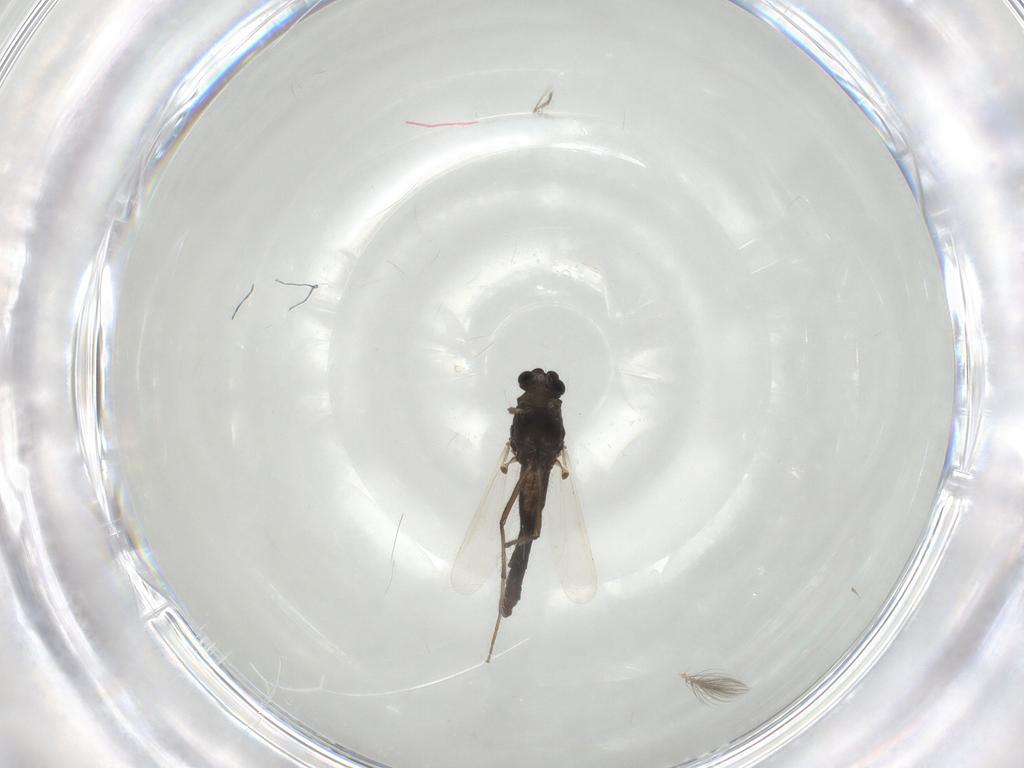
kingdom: Animalia
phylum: Arthropoda
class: Insecta
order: Diptera
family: Chironomidae
